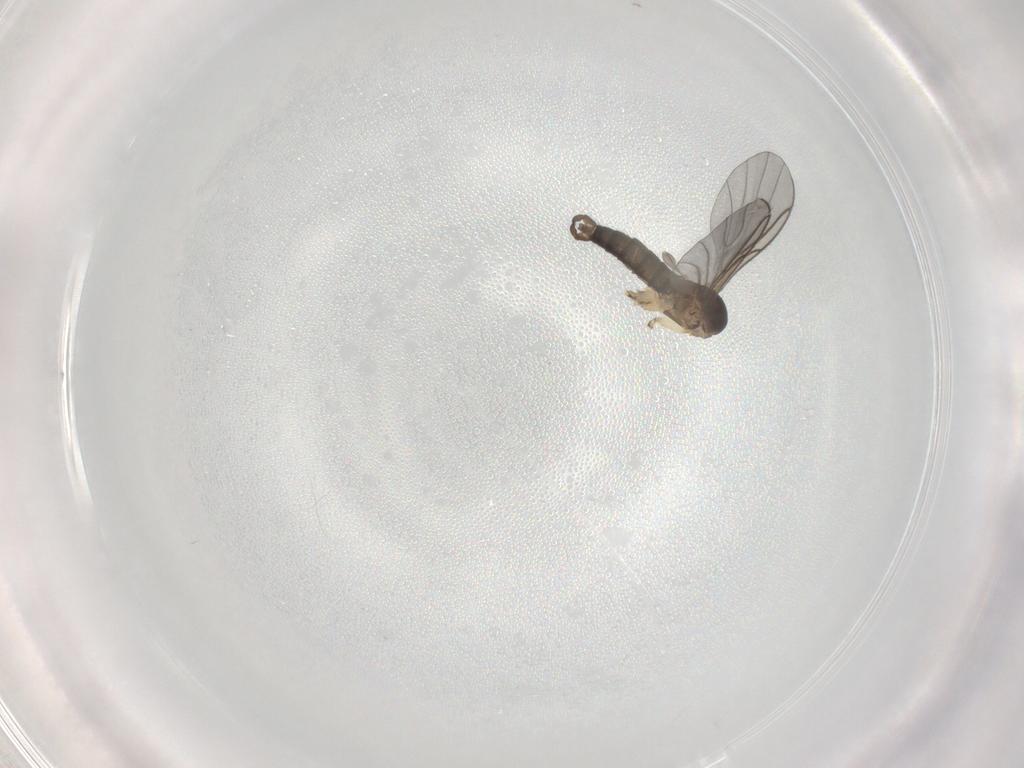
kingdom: Animalia
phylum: Arthropoda
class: Insecta
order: Diptera
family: Sciaridae
